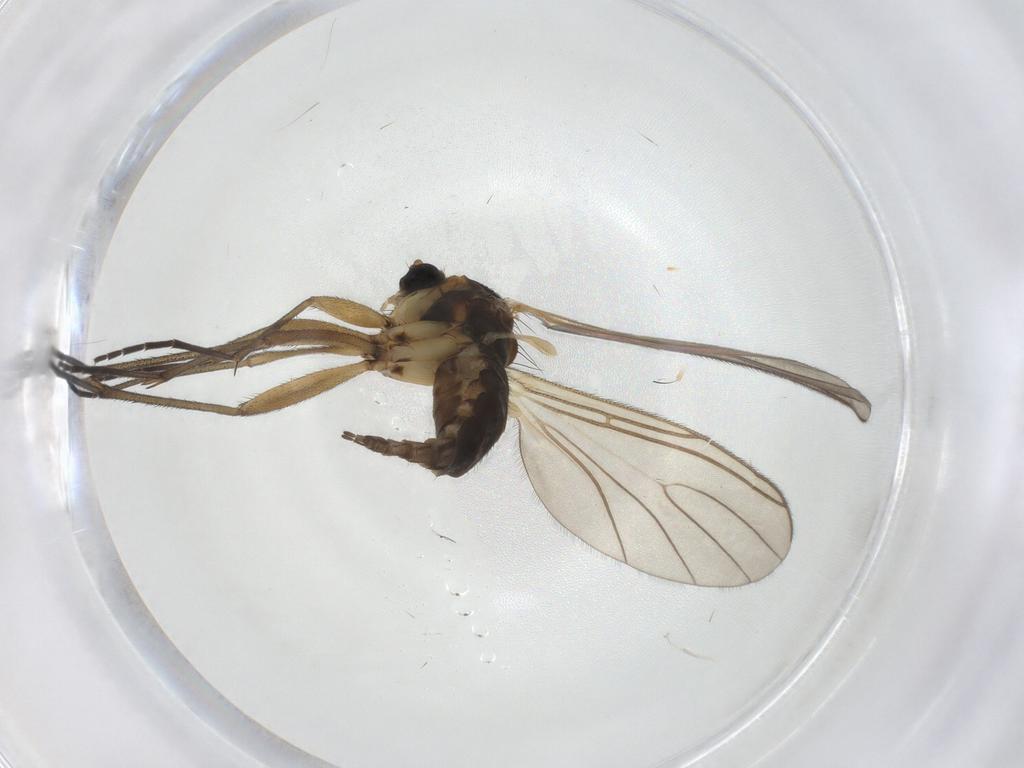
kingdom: Animalia
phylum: Arthropoda
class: Insecta
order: Diptera
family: Sciaridae
